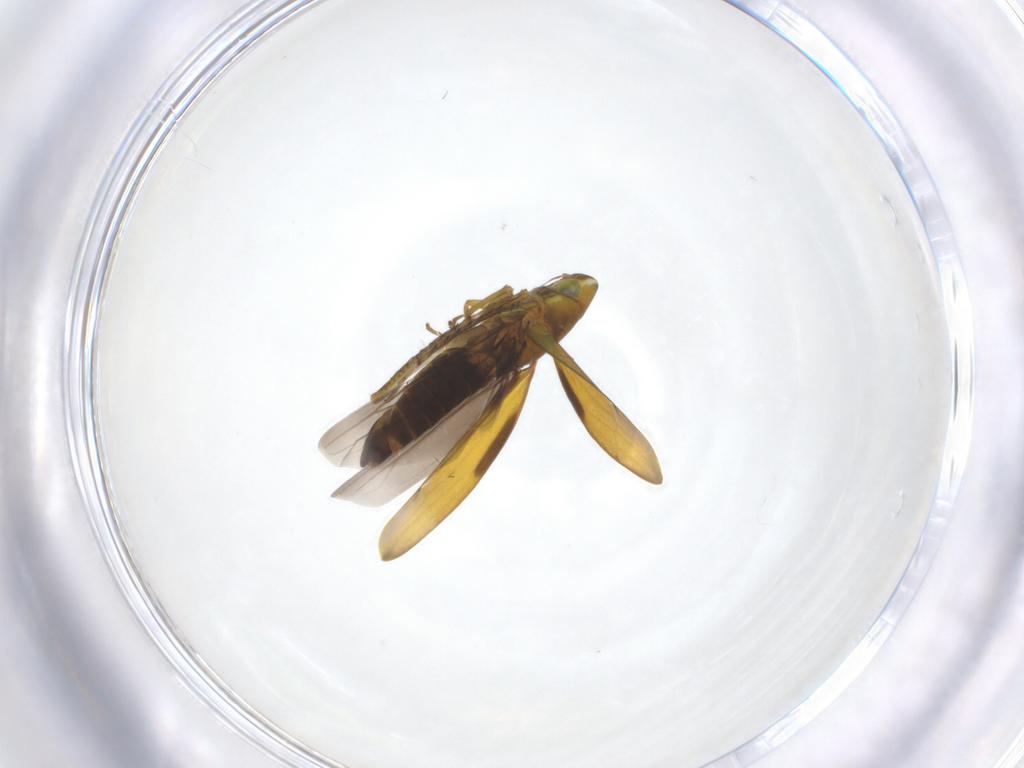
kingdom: Animalia
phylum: Arthropoda
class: Insecta
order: Hemiptera
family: Cicadellidae
